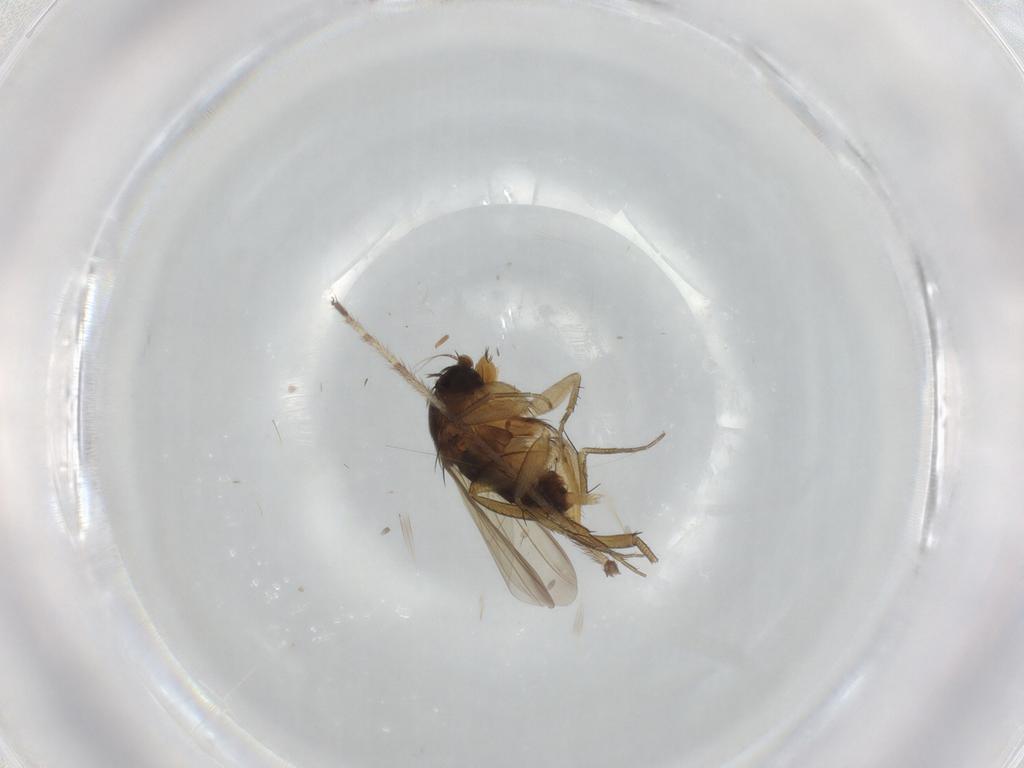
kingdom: Animalia
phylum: Arthropoda
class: Insecta
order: Diptera
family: Phoridae
